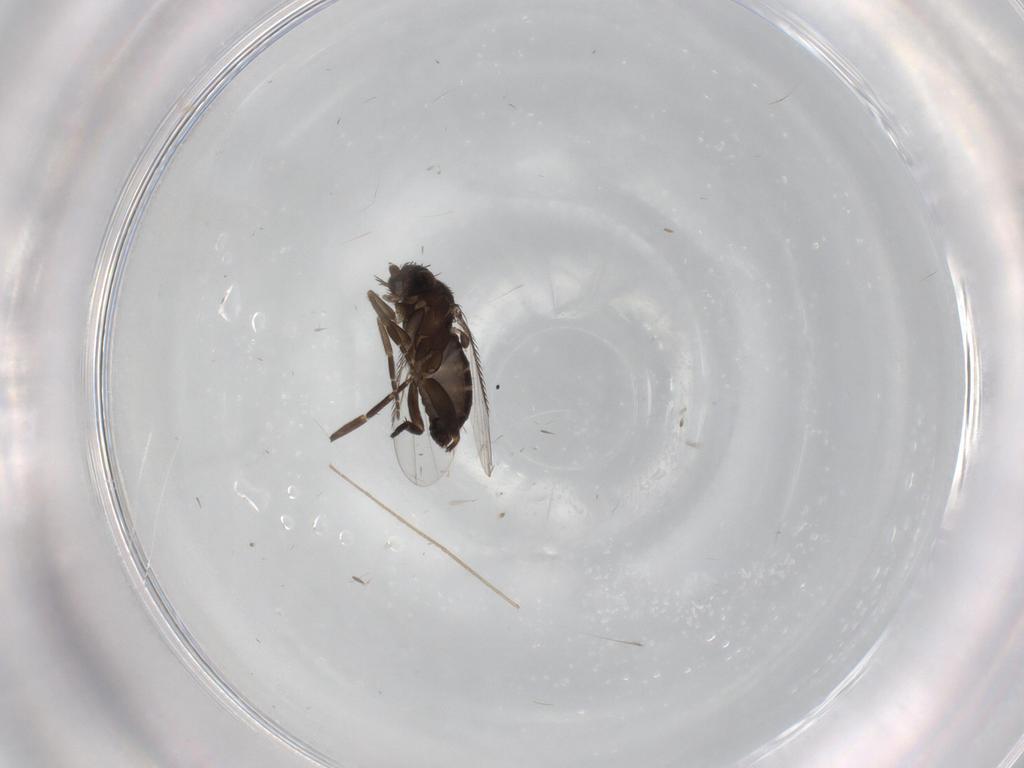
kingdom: Animalia
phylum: Arthropoda
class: Insecta
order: Diptera
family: Phoridae
